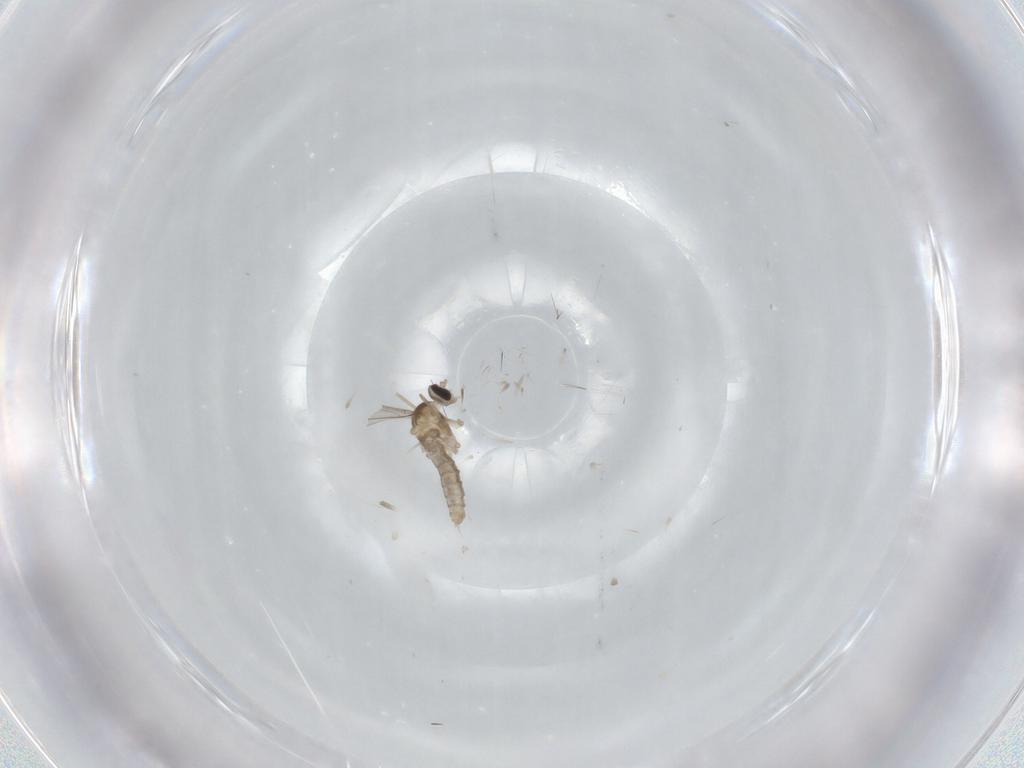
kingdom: Animalia
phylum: Arthropoda
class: Insecta
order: Diptera
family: Cecidomyiidae
